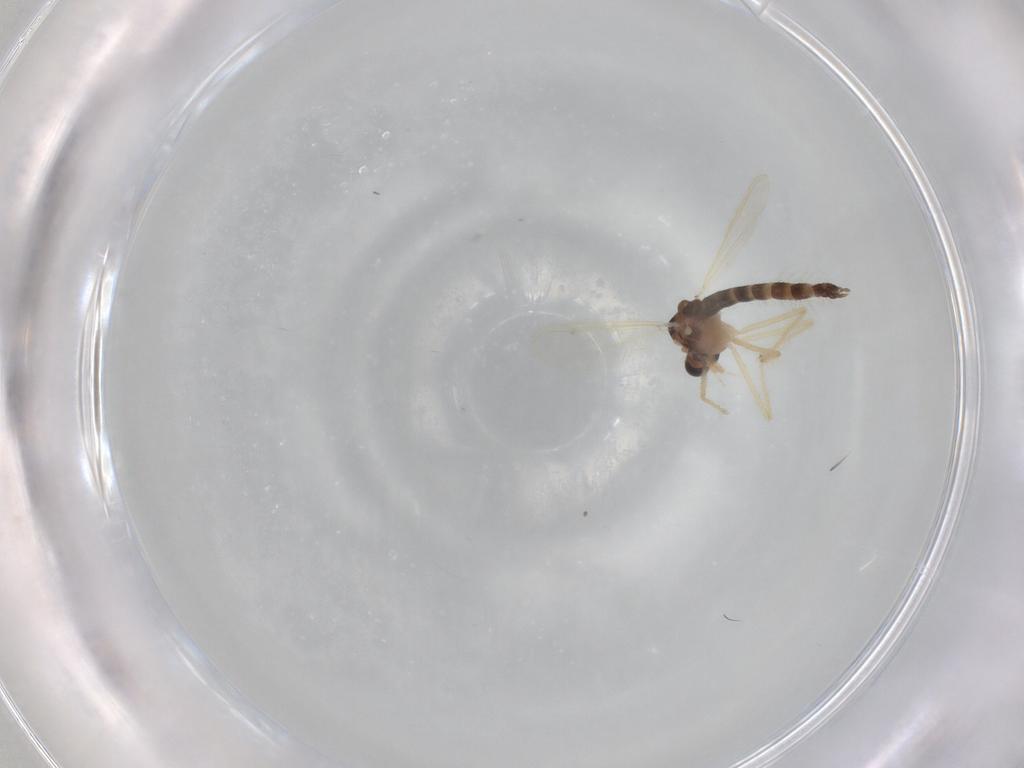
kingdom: Animalia
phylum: Arthropoda
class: Insecta
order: Diptera
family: Chironomidae
